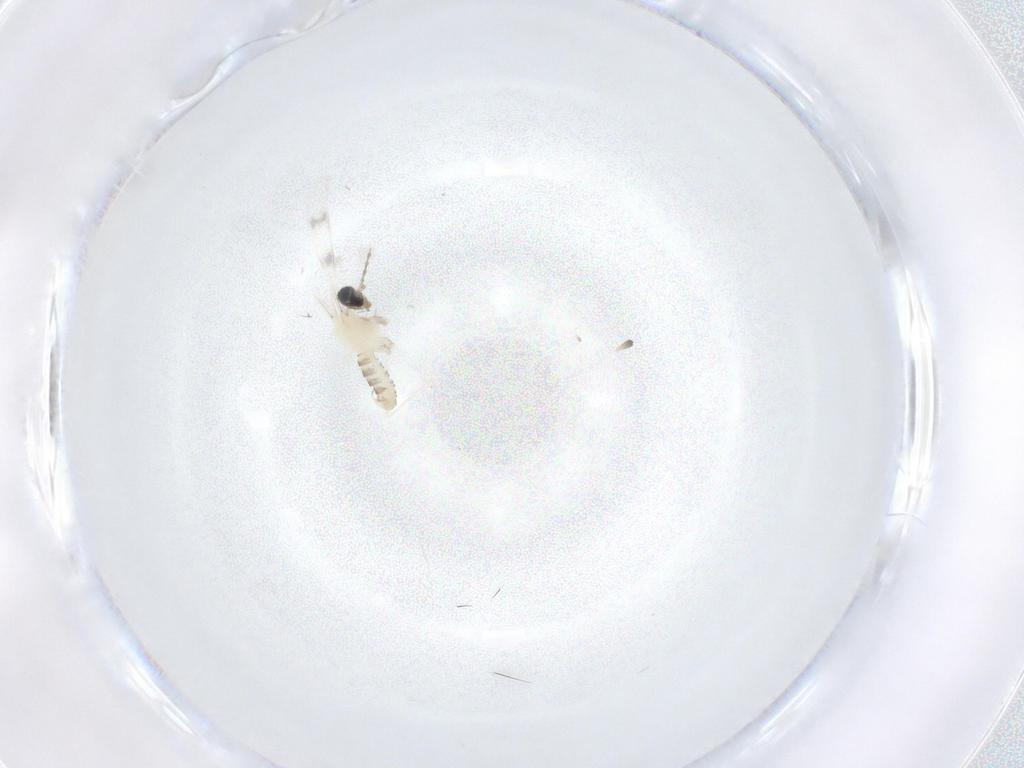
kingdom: Animalia
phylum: Arthropoda
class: Insecta
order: Diptera
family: Cecidomyiidae
